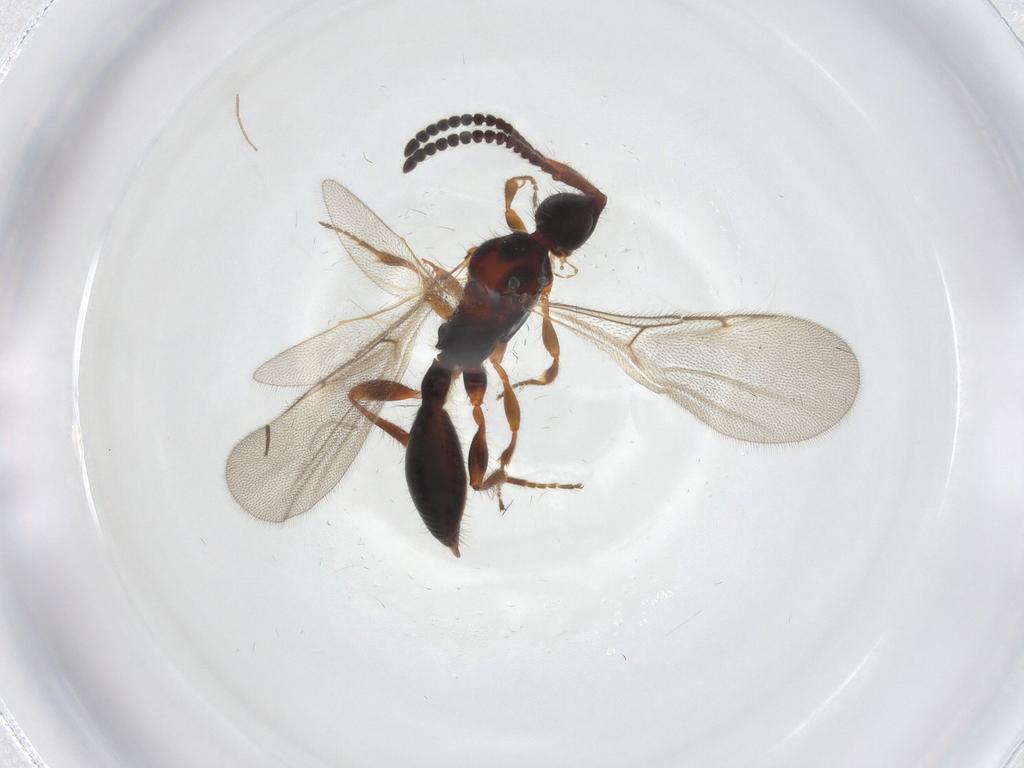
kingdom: Animalia
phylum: Arthropoda
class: Insecta
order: Hymenoptera
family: Diapriidae
